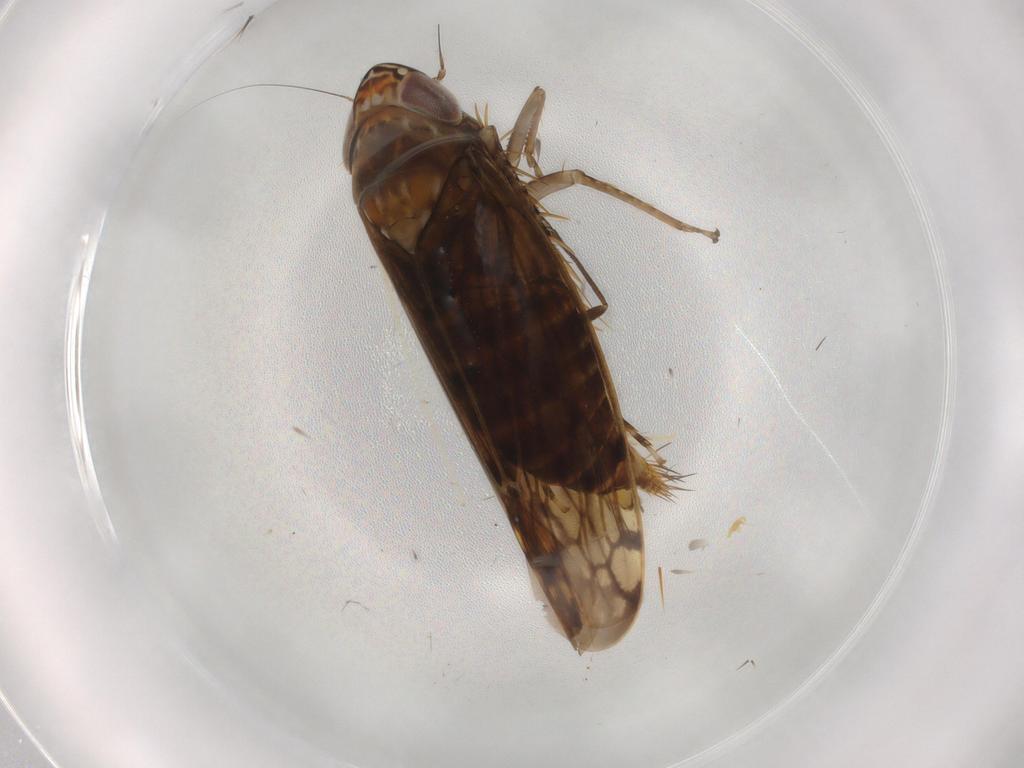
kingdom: Animalia
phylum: Arthropoda
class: Insecta
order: Hemiptera
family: Cicadellidae
